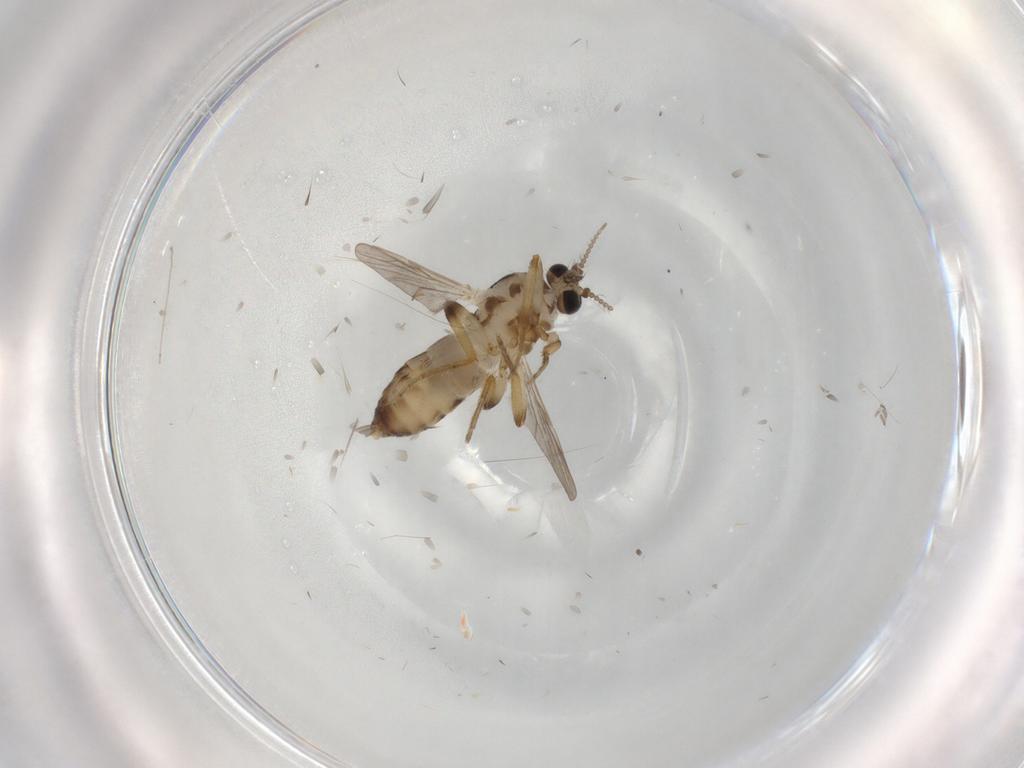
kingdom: Animalia
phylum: Arthropoda
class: Insecta
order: Diptera
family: Ceratopogonidae
